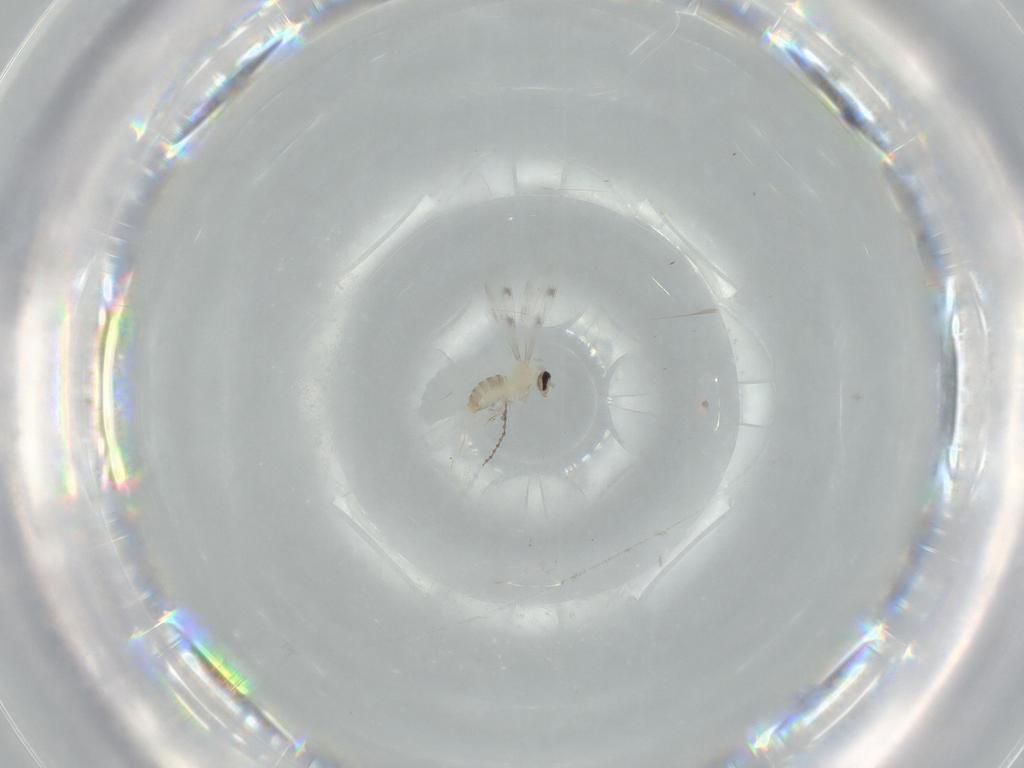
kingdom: Animalia
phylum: Arthropoda
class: Insecta
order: Diptera
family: Cecidomyiidae
